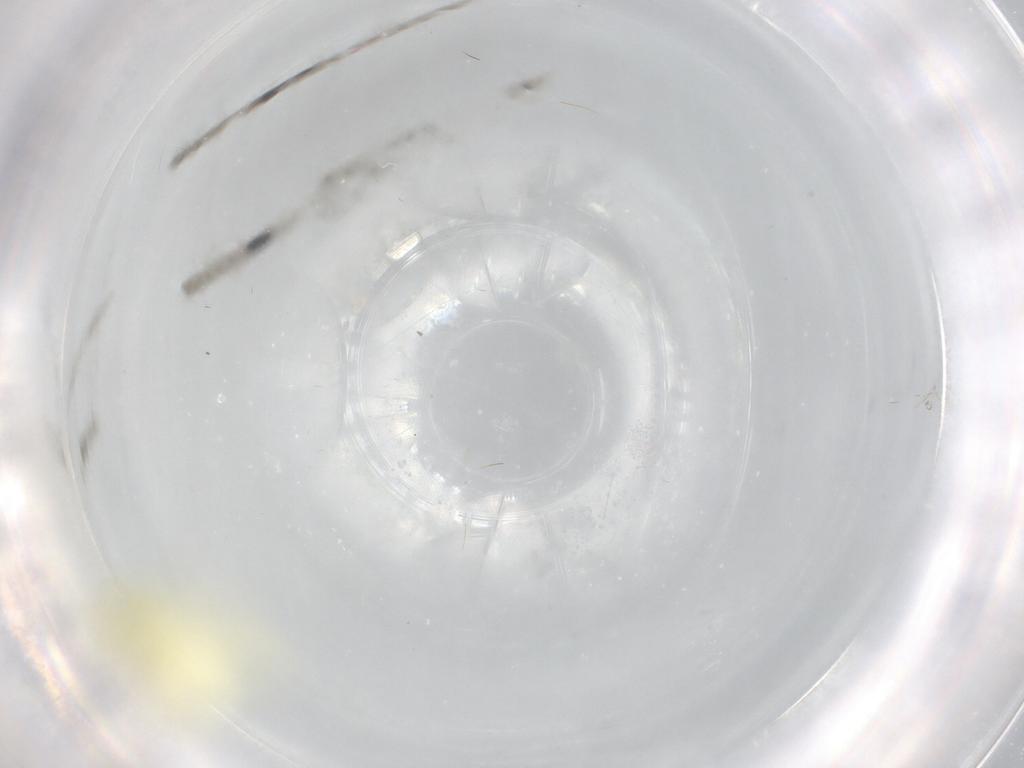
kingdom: Animalia
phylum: Arthropoda
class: Insecta
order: Hemiptera
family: Cicadellidae
